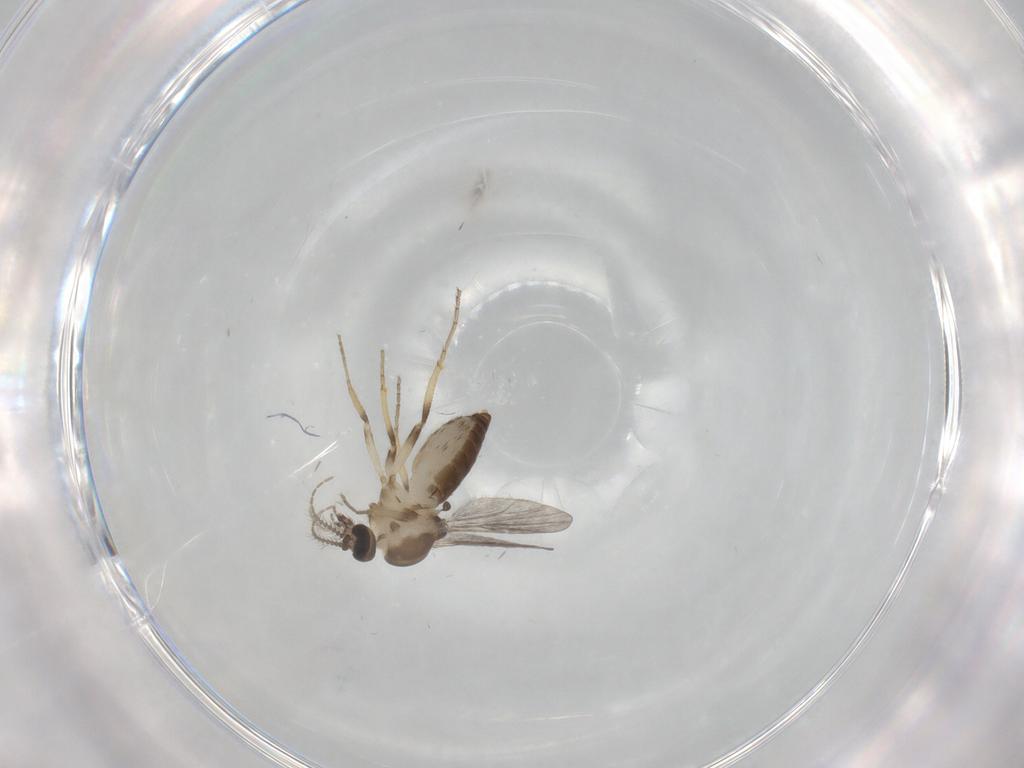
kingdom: Animalia
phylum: Arthropoda
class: Insecta
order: Diptera
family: Ceratopogonidae
